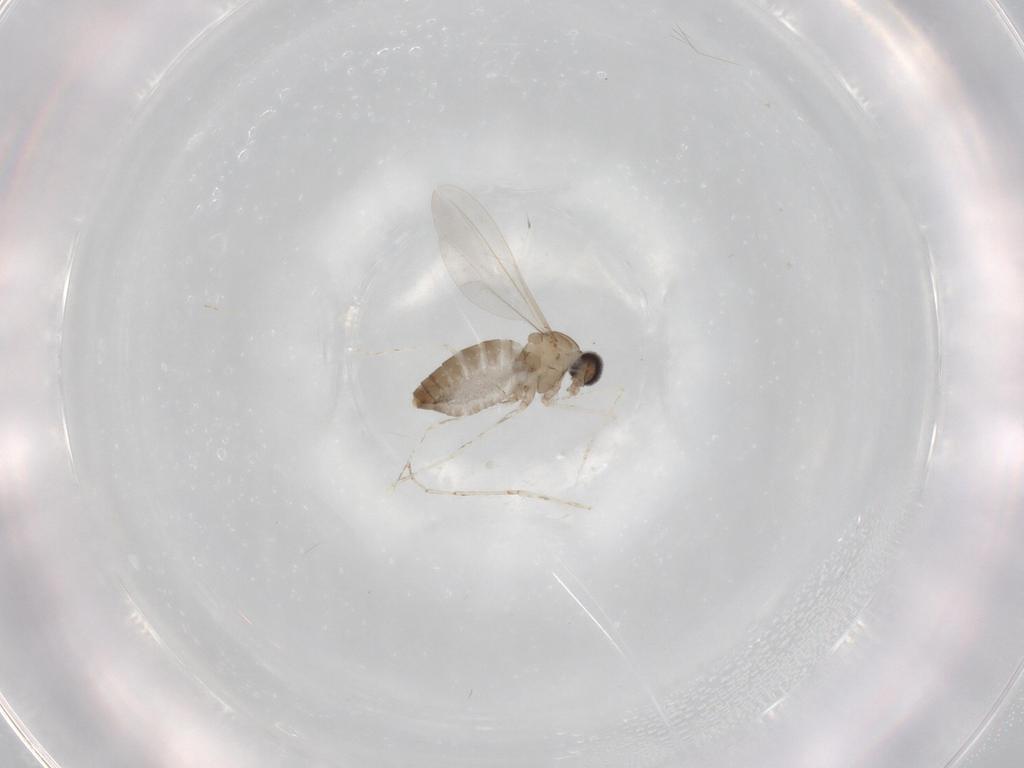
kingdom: Animalia
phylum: Arthropoda
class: Insecta
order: Diptera
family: Cecidomyiidae
